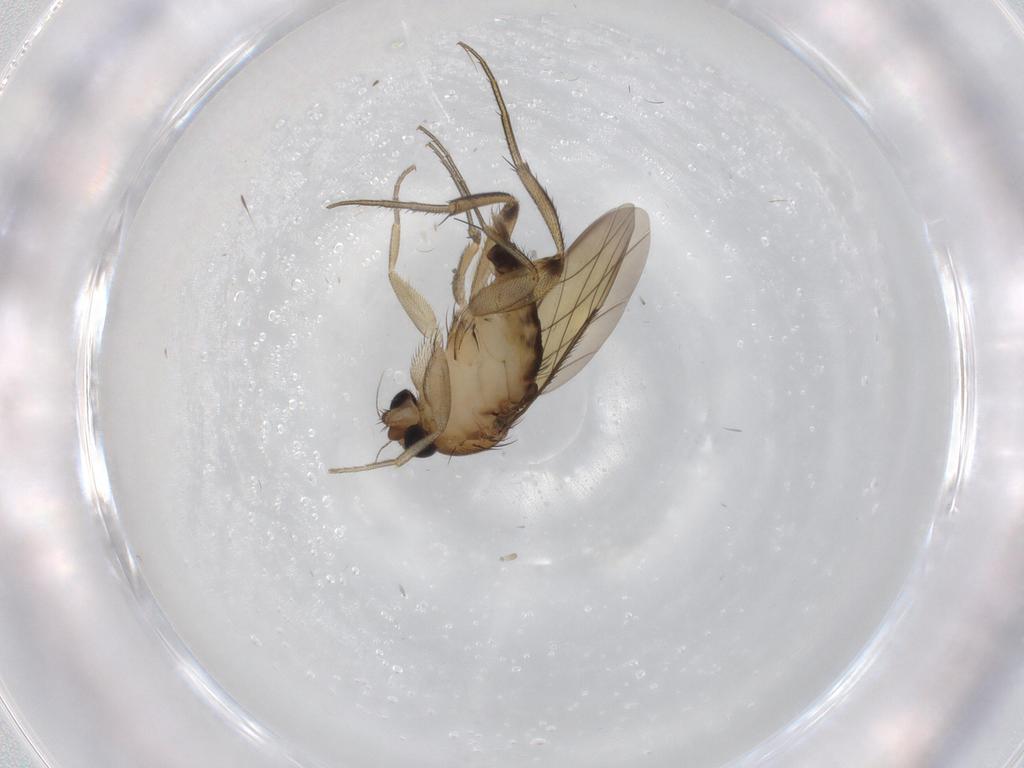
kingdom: Animalia
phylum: Arthropoda
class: Insecta
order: Diptera
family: Phoridae
